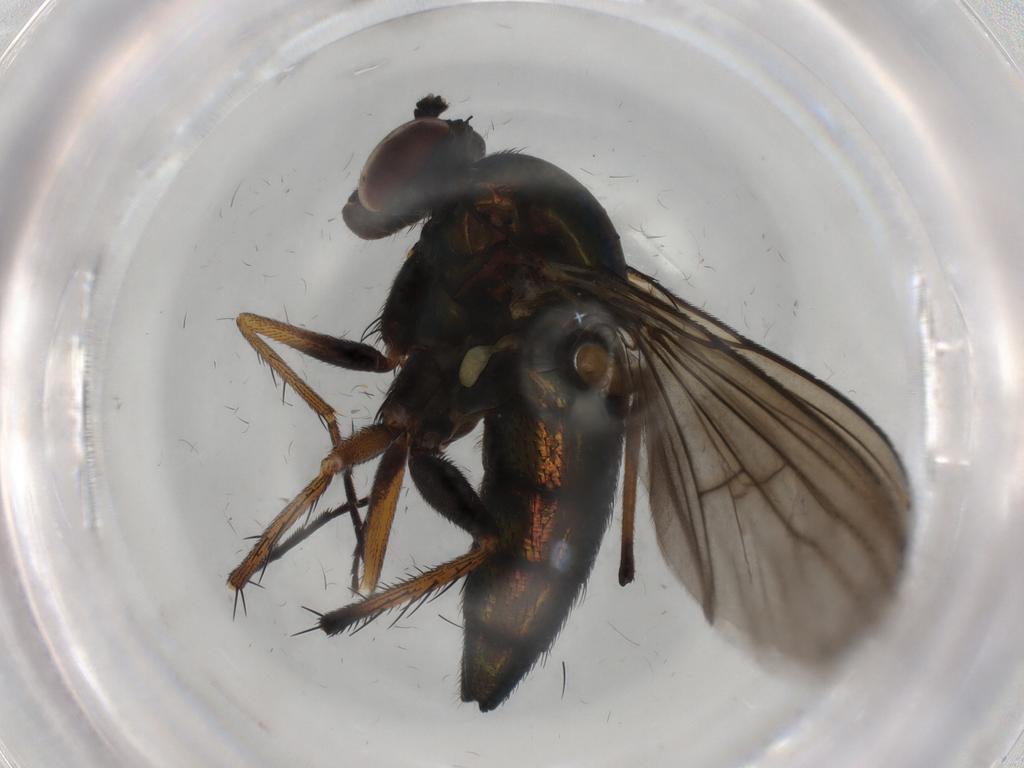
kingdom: Animalia
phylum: Arthropoda
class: Insecta
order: Diptera
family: Chironomidae
